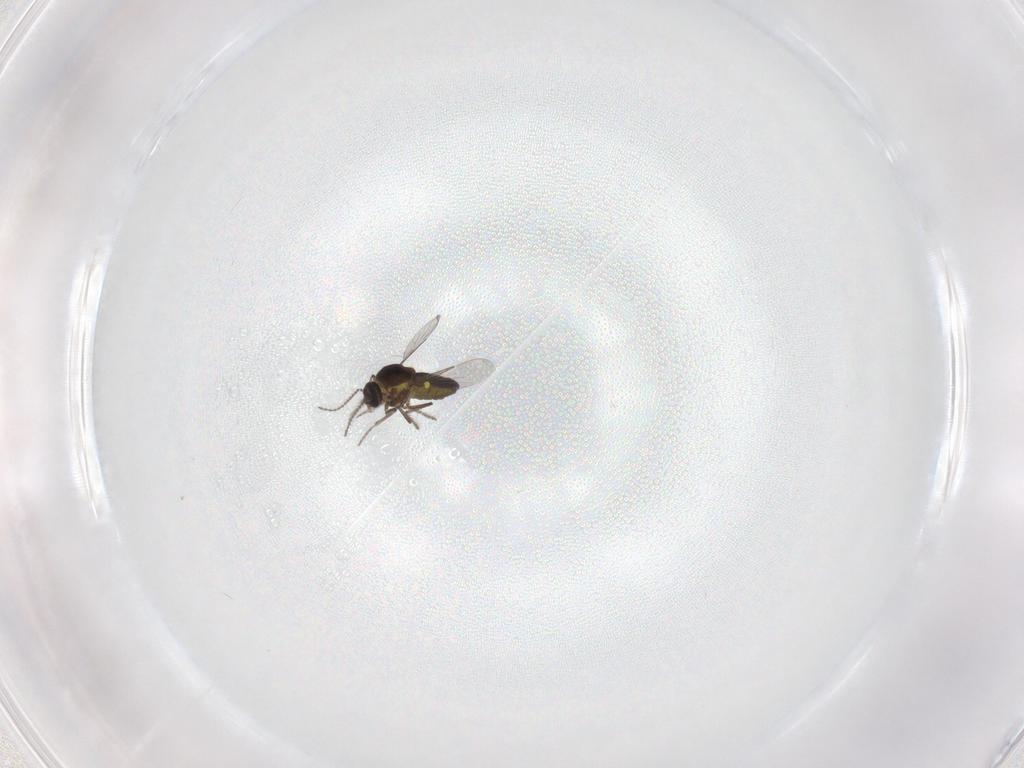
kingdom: Animalia
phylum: Arthropoda
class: Insecta
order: Diptera
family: Ceratopogonidae
